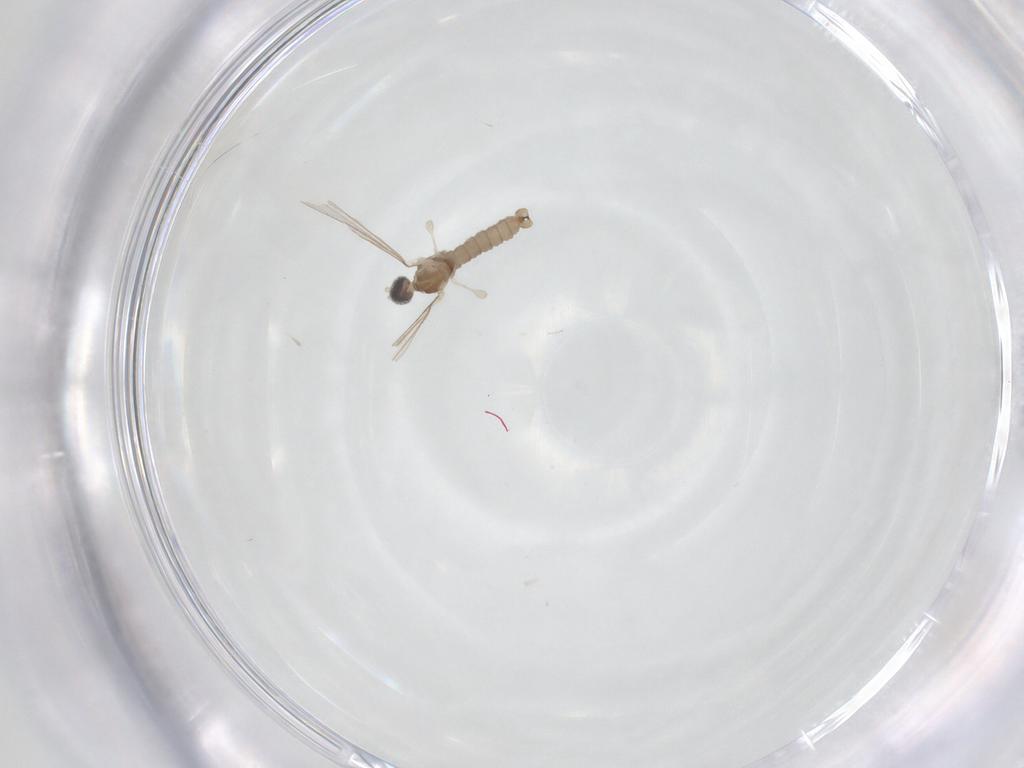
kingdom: Animalia
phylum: Arthropoda
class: Insecta
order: Diptera
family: Cecidomyiidae
